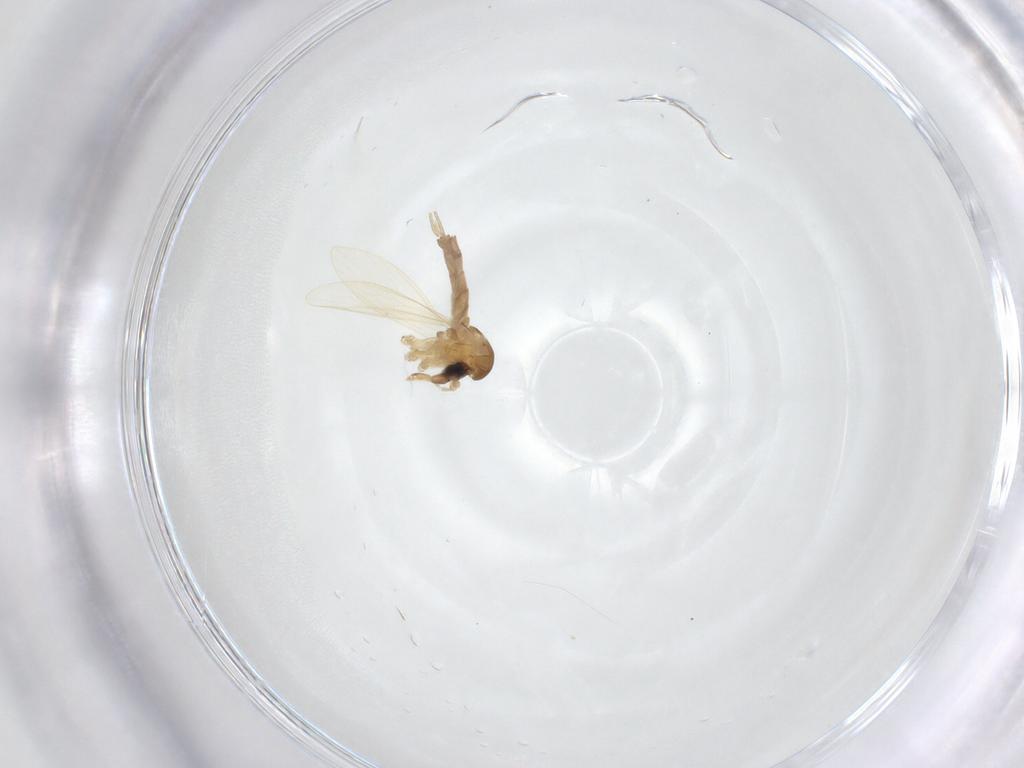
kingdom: Animalia
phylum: Arthropoda
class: Insecta
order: Diptera
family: Psychodidae
